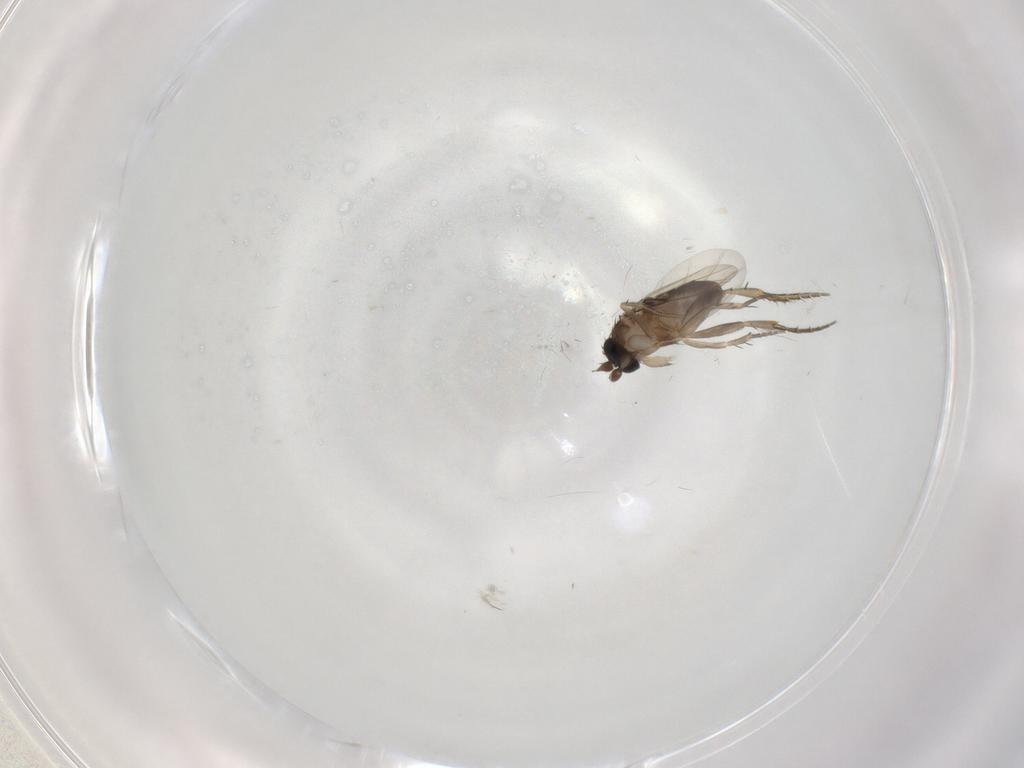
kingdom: Animalia
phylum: Arthropoda
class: Insecta
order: Diptera
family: Phoridae
